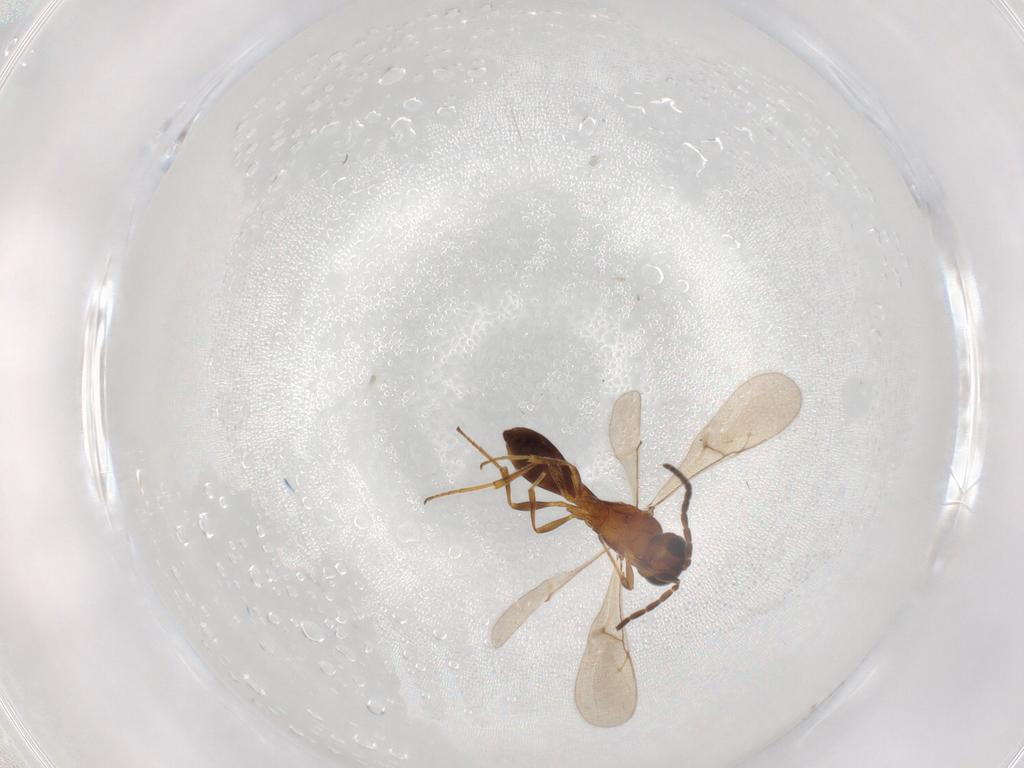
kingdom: Animalia
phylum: Arthropoda
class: Insecta
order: Hymenoptera
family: Scelionidae
